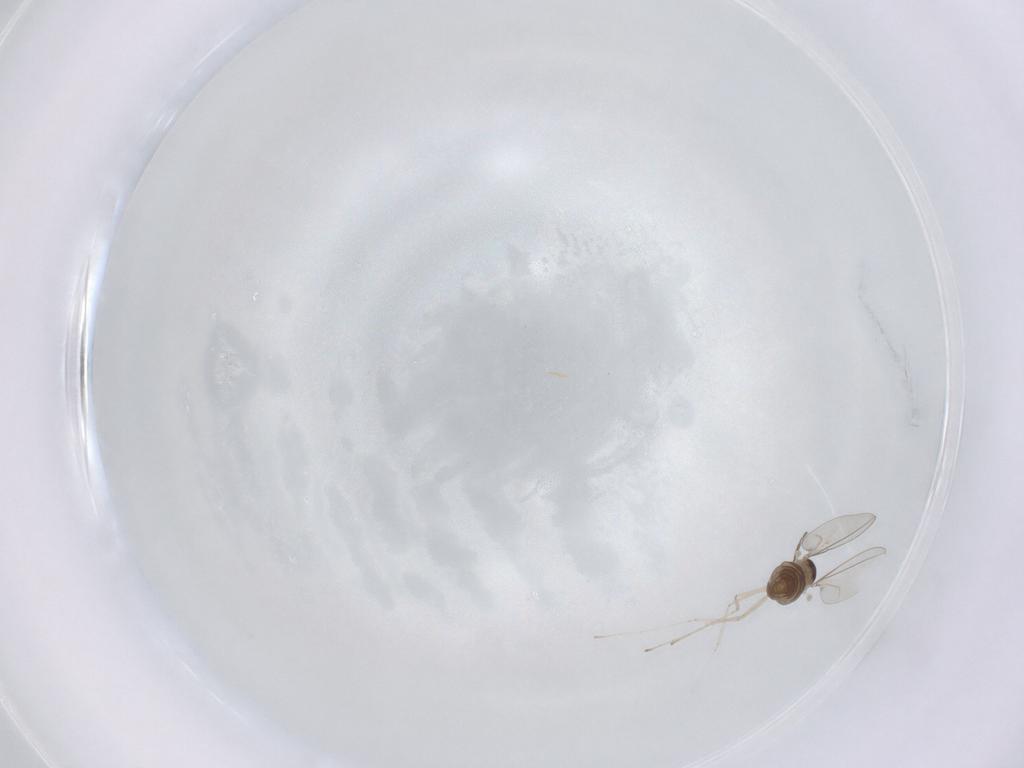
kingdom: Animalia
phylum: Arthropoda
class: Insecta
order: Diptera
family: Cecidomyiidae
